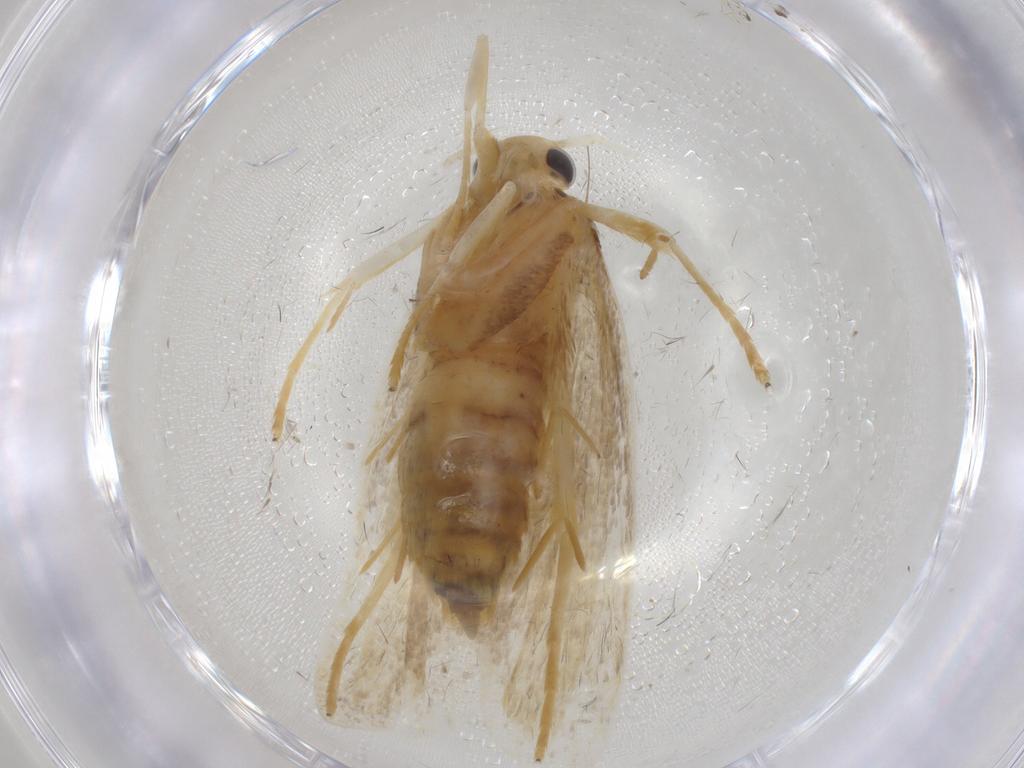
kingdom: Animalia
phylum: Arthropoda
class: Insecta
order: Lepidoptera
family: Lecithoceridae
